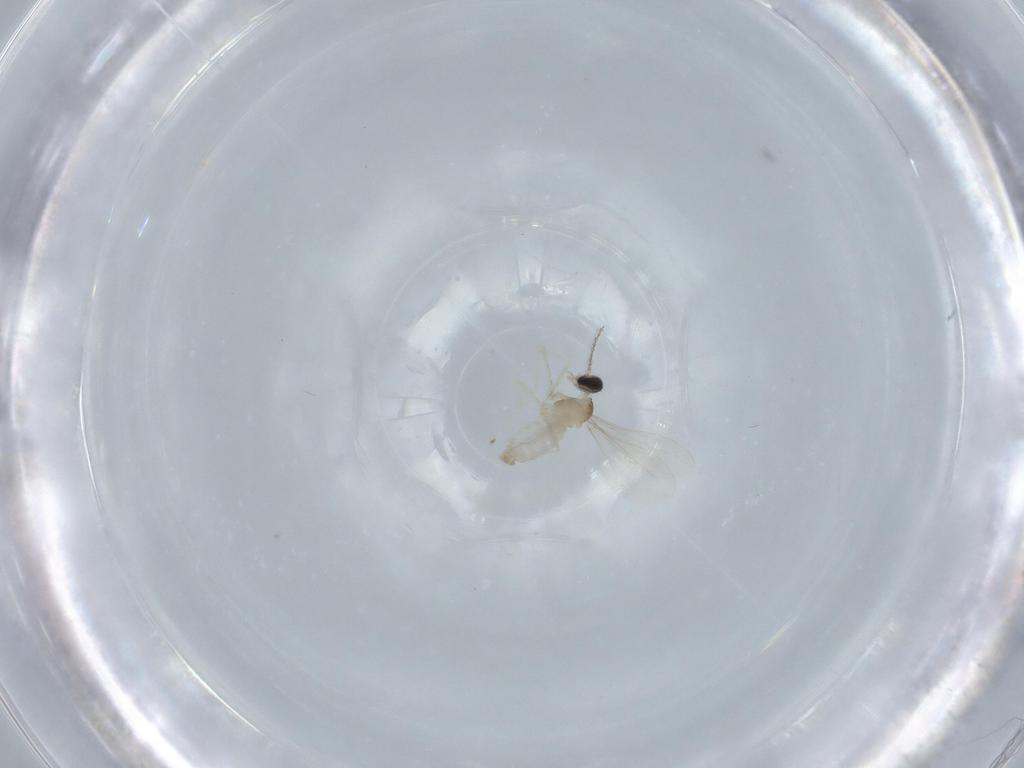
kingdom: Animalia
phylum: Arthropoda
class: Insecta
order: Diptera
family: Cecidomyiidae
